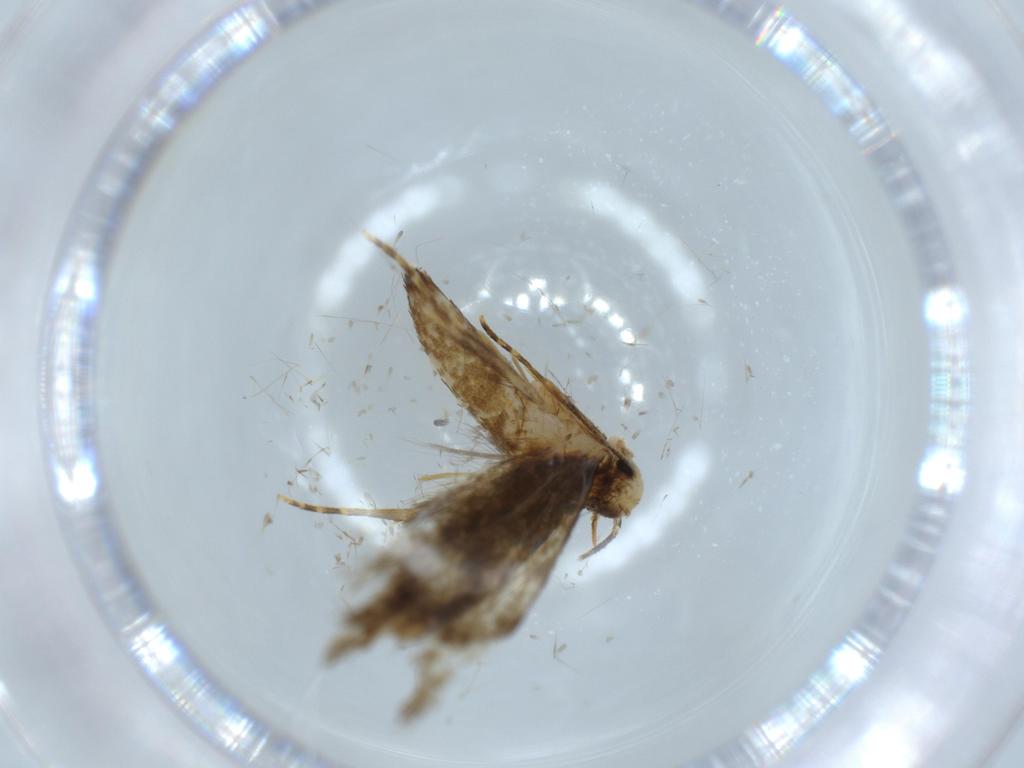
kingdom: Animalia
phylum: Arthropoda
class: Insecta
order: Lepidoptera
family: Tineidae
